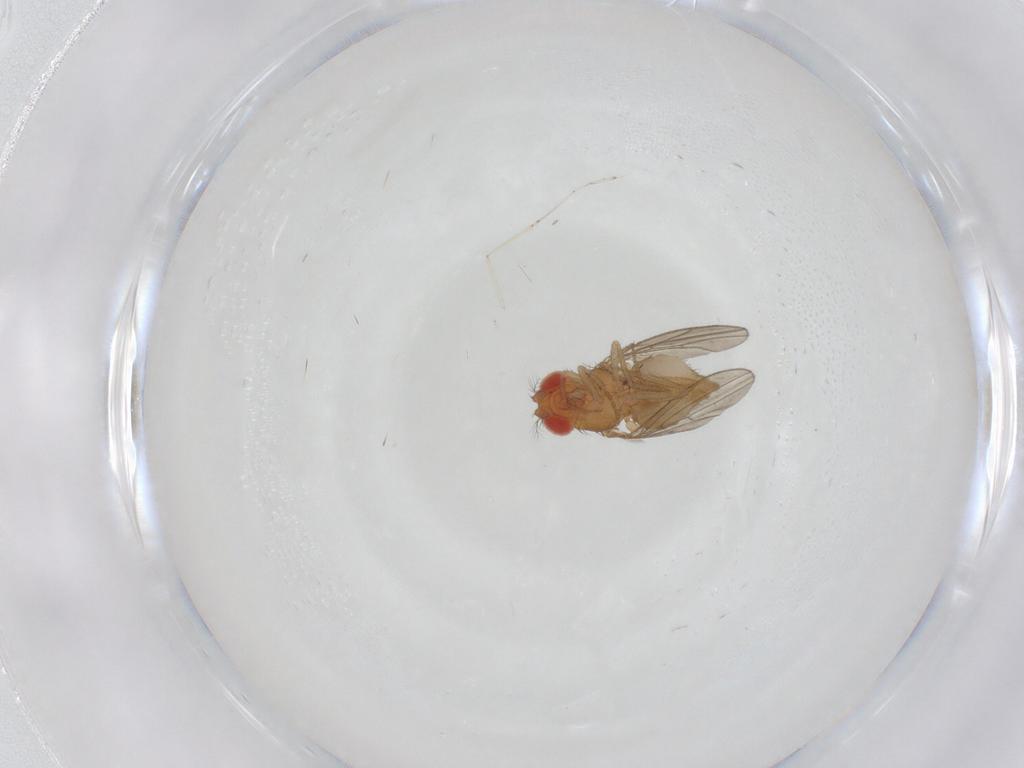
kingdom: Animalia
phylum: Arthropoda
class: Insecta
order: Diptera
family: Drosophilidae
